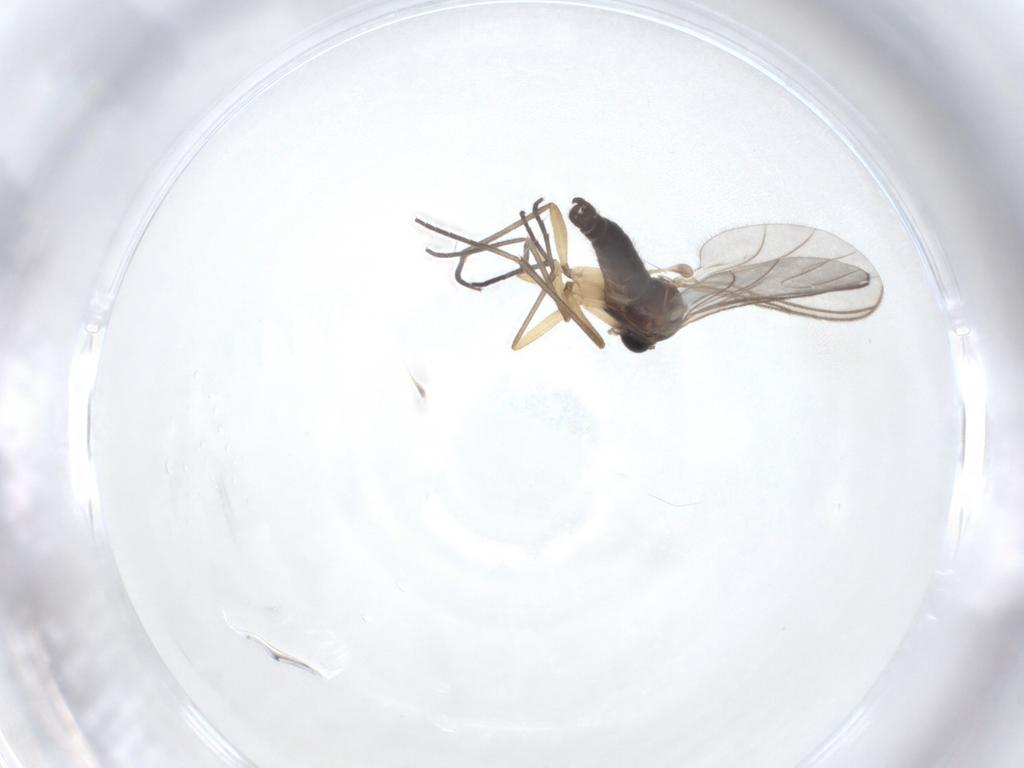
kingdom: Animalia
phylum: Arthropoda
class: Insecta
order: Diptera
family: Sciaridae
